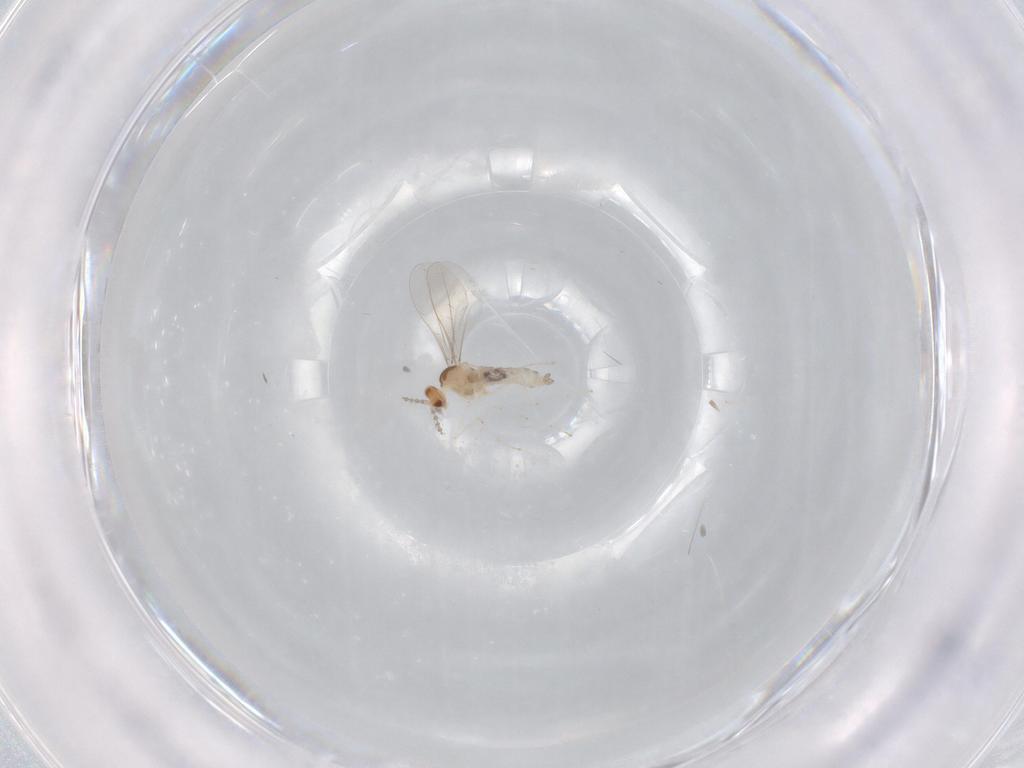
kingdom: Animalia
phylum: Arthropoda
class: Insecta
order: Diptera
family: Cecidomyiidae
